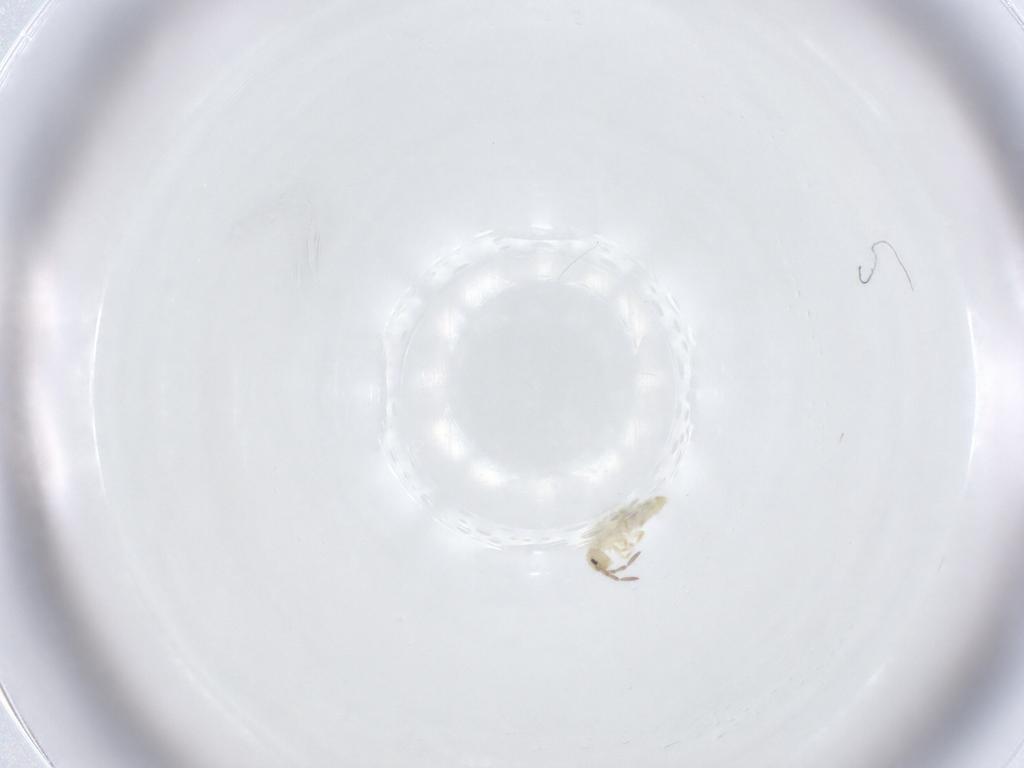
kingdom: Animalia
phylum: Arthropoda
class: Collembola
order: Entomobryomorpha
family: Entomobryidae
